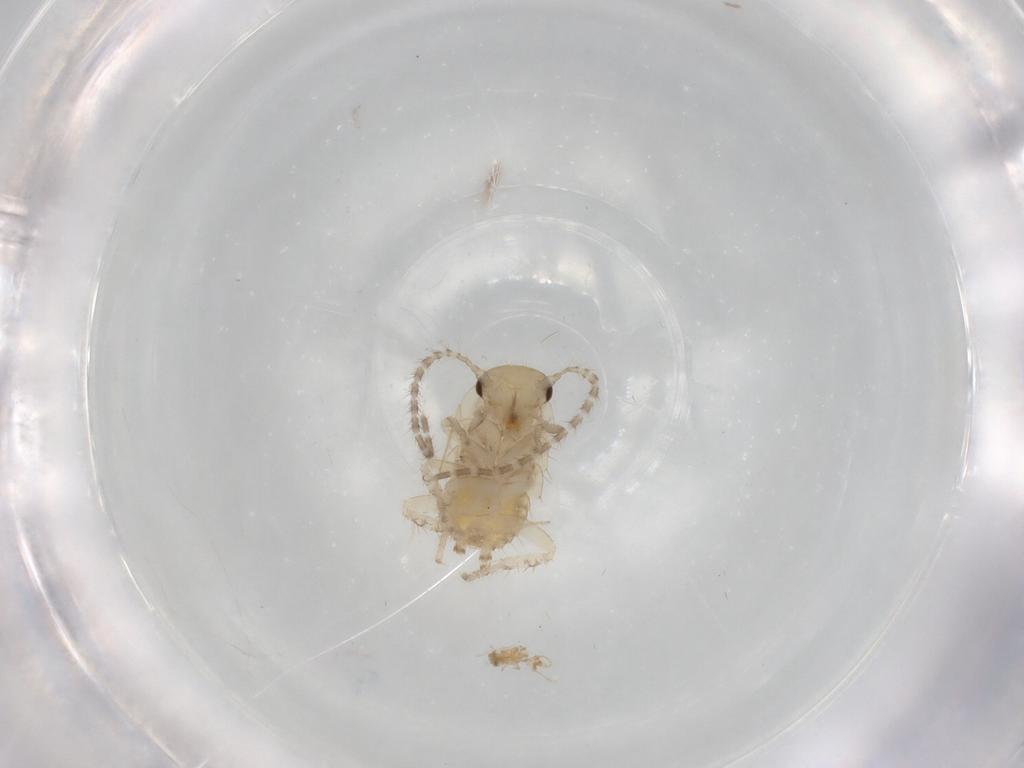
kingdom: Animalia
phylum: Arthropoda
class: Insecta
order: Blattodea
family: Ectobiidae
